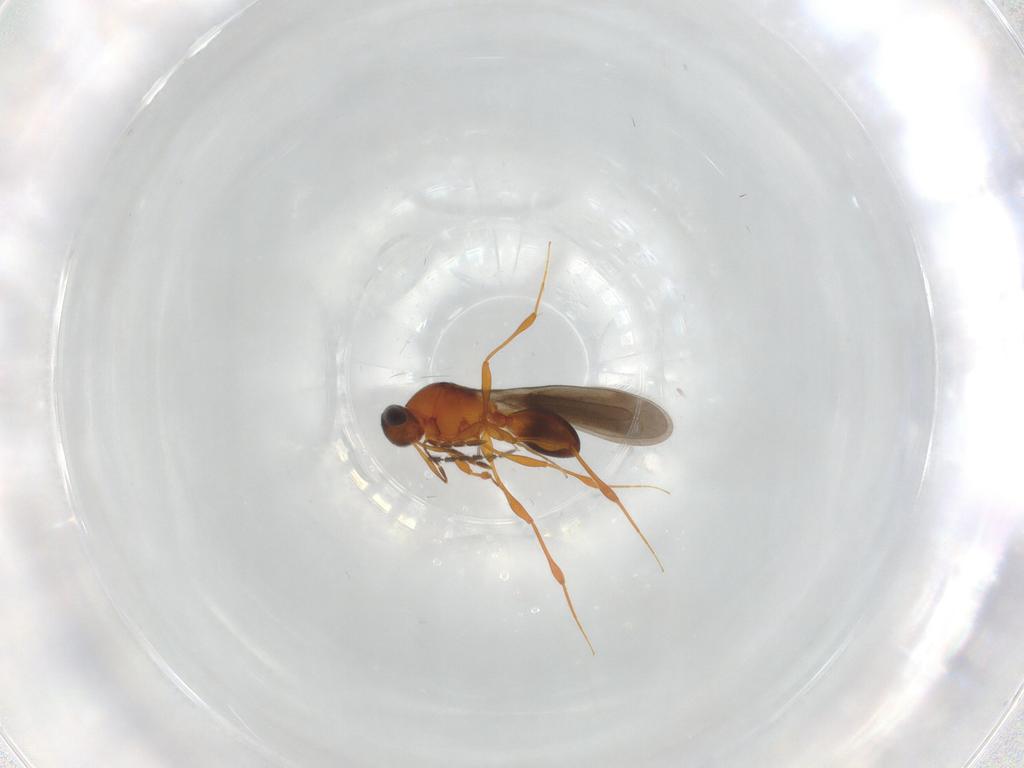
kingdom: Animalia
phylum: Arthropoda
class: Insecta
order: Hymenoptera
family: Platygastridae
